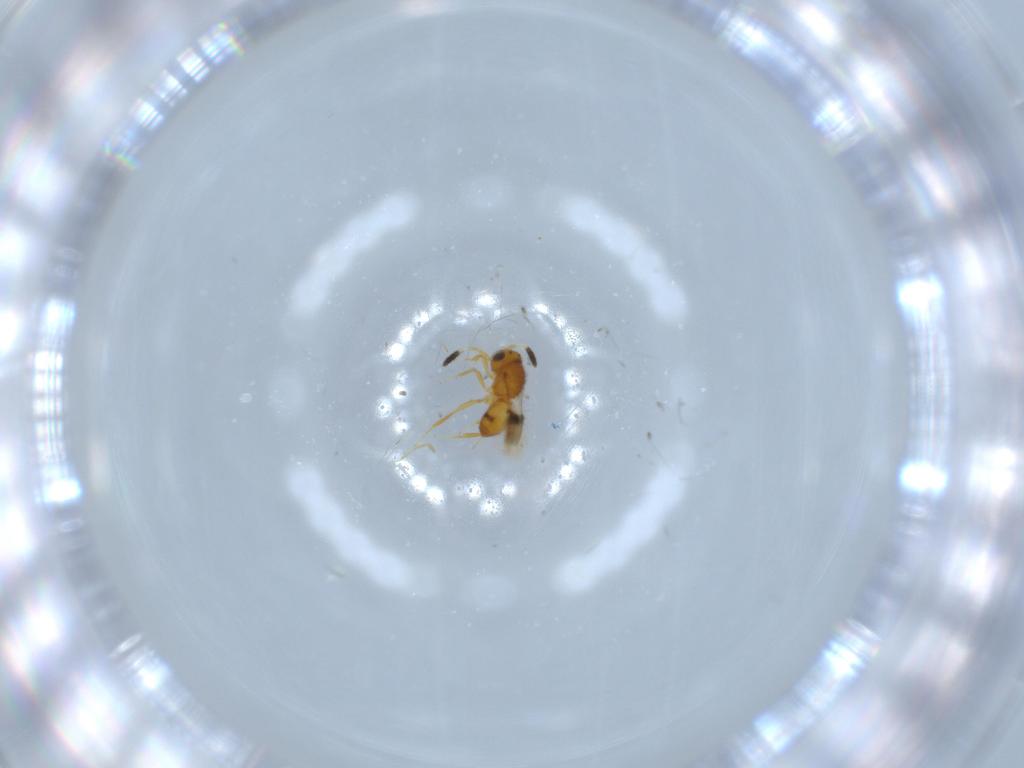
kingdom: Animalia
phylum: Arthropoda
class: Insecta
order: Hymenoptera
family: Scelionidae
